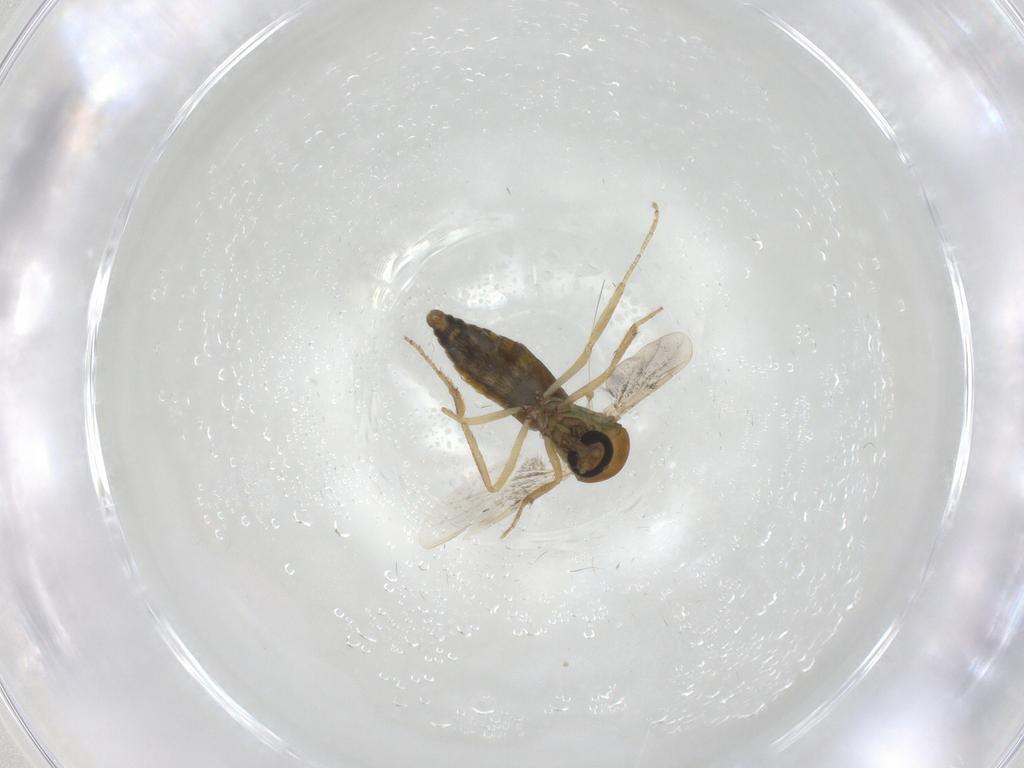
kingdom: Animalia
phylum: Arthropoda
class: Insecta
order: Diptera
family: Ceratopogonidae
